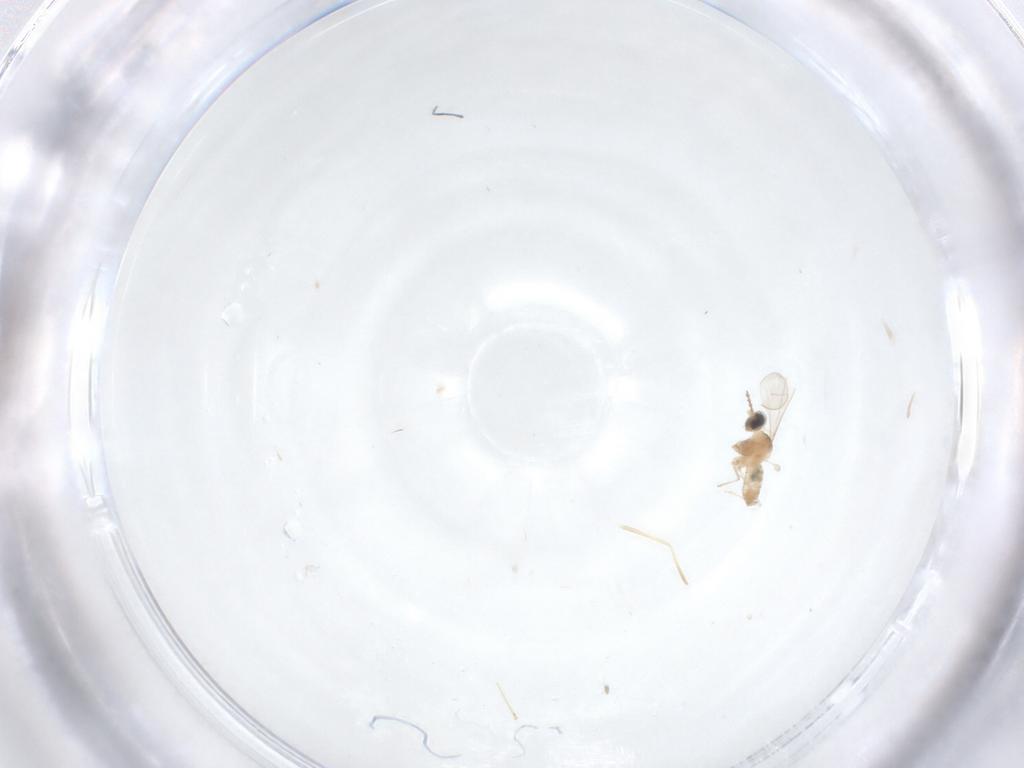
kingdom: Animalia
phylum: Arthropoda
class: Insecta
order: Diptera
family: Cecidomyiidae
